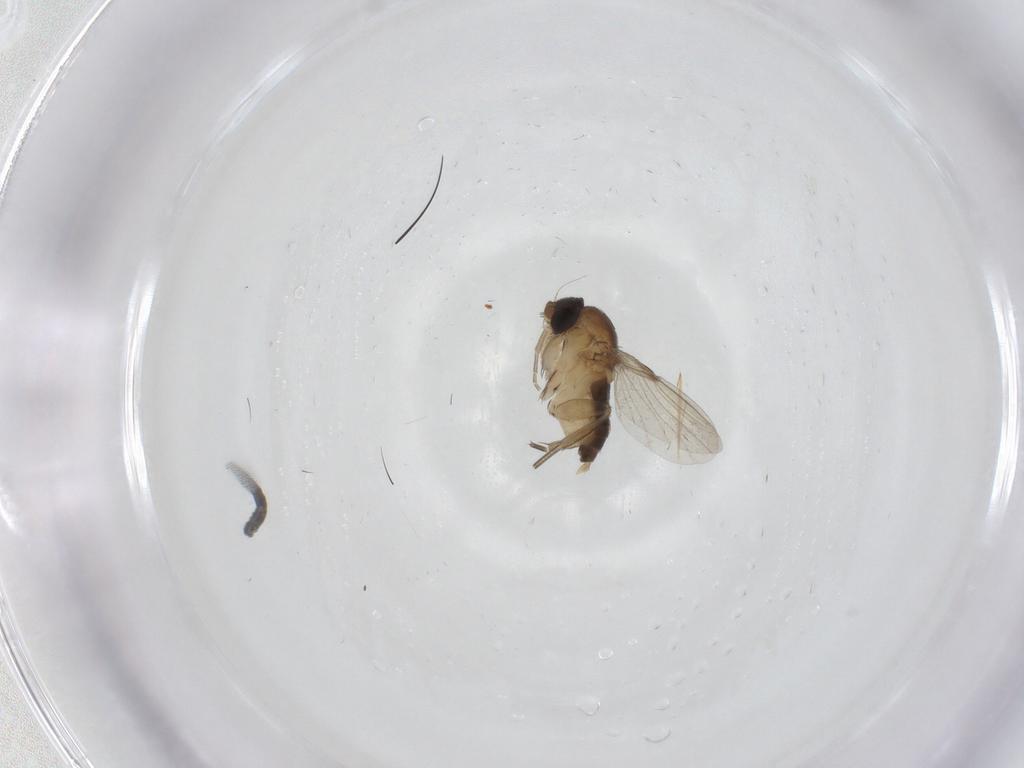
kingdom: Animalia
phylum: Arthropoda
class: Insecta
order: Diptera
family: Phoridae
